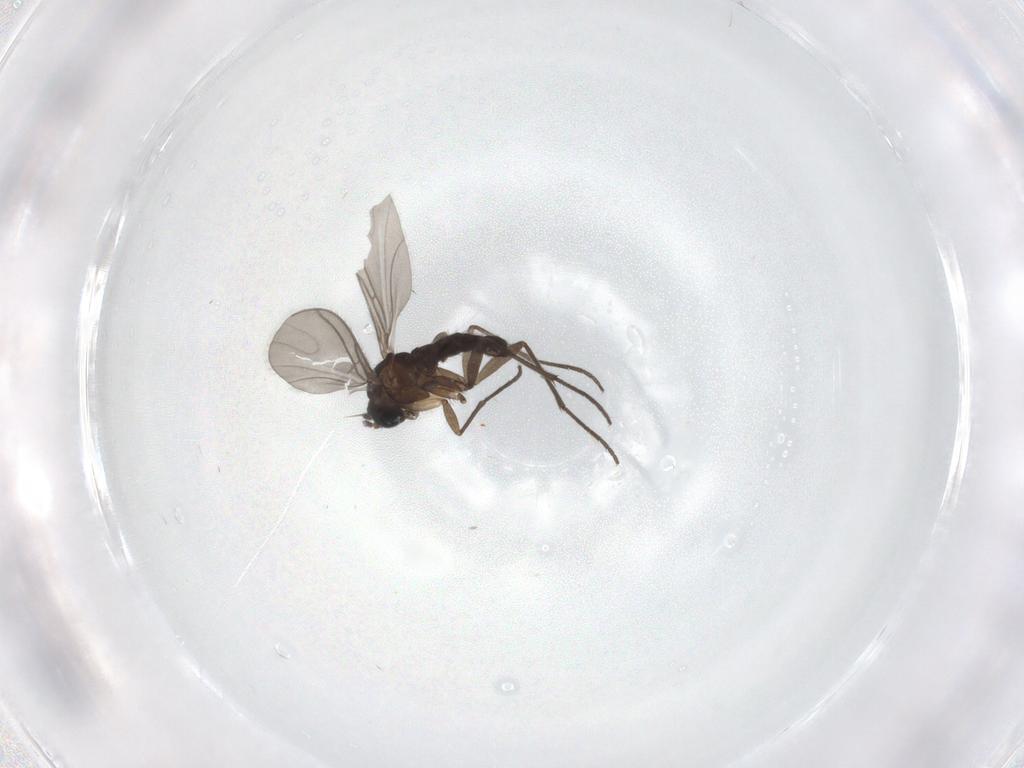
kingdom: Animalia
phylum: Arthropoda
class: Insecta
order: Diptera
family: Sciaridae
